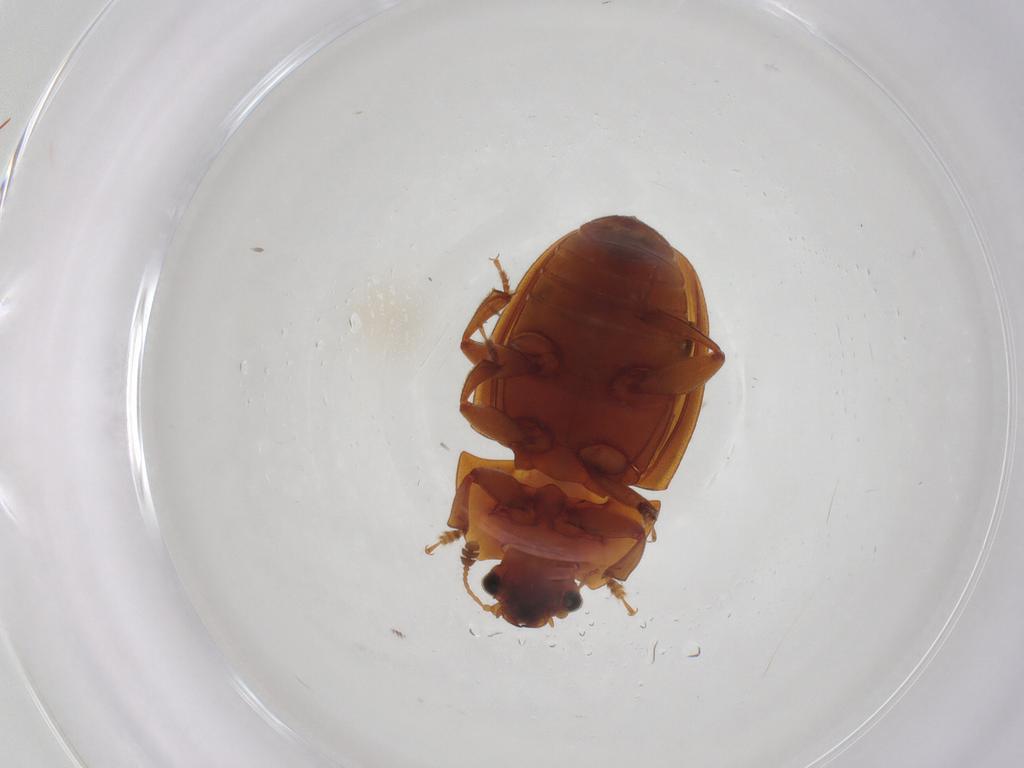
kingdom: Animalia
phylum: Arthropoda
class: Insecta
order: Coleoptera
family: Nitidulidae
